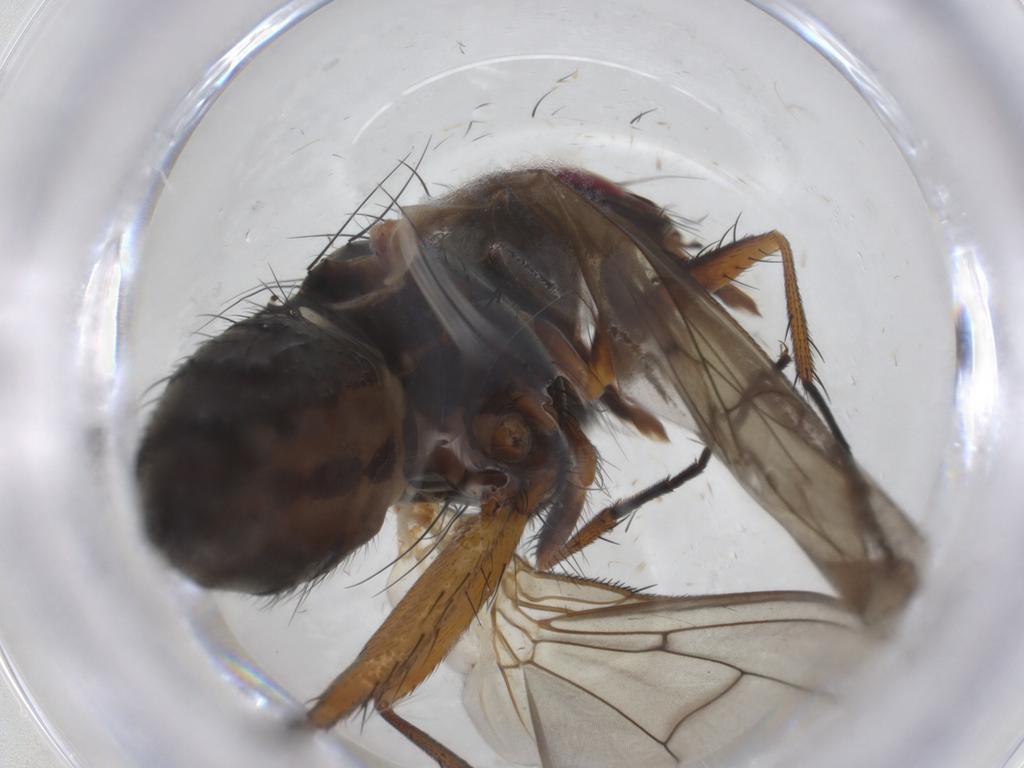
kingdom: Animalia
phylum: Arthropoda
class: Insecta
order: Diptera
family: Anthomyiidae
